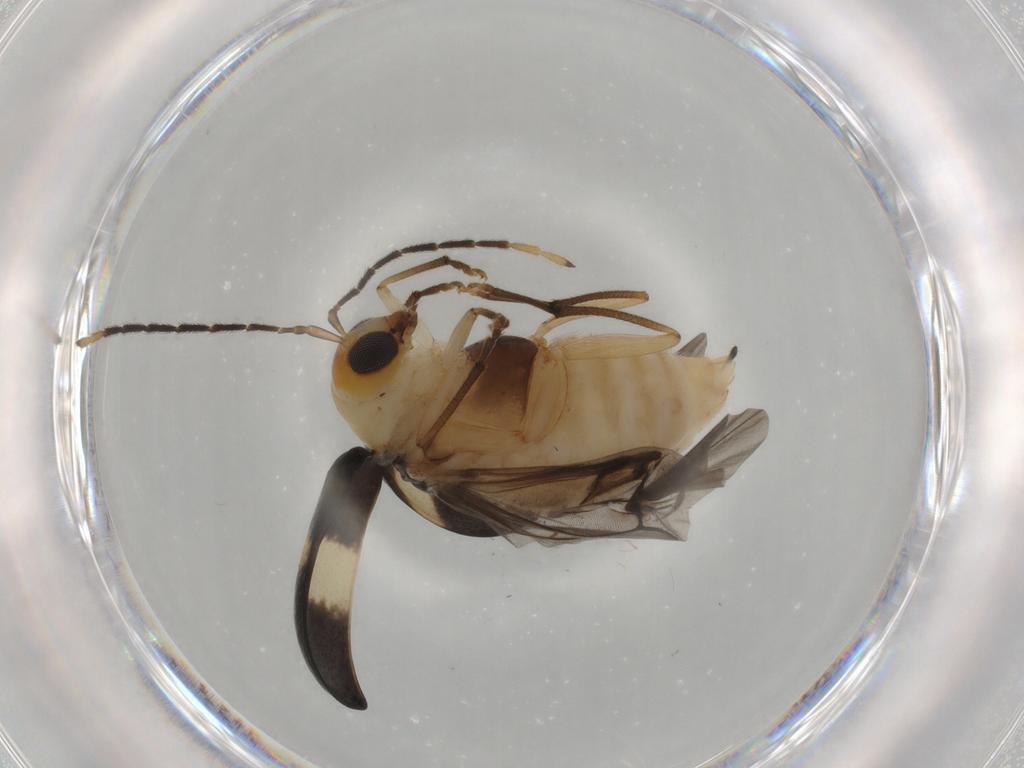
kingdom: Animalia
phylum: Arthropoda
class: Insecta
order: Coleoptera
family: Chrysomelidae
